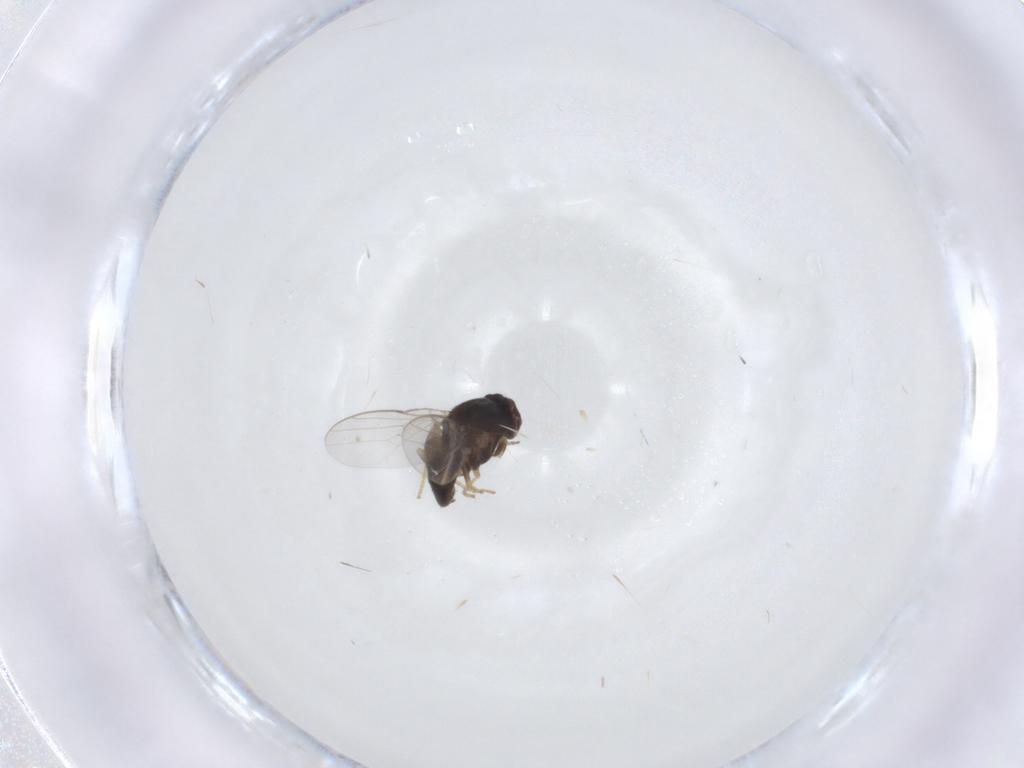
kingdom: Animalia
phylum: Arthropoda
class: Insecta
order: Diptera
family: Chloropidae
